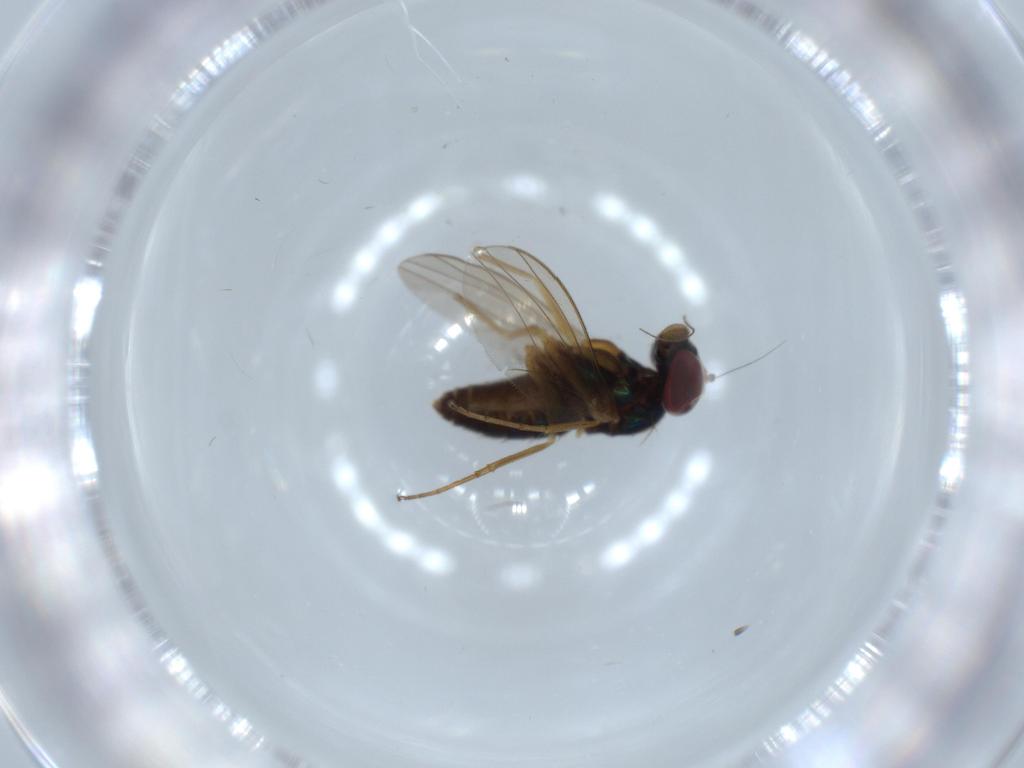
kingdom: Animalia
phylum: Arthropoda
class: Insecta
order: Diptera
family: Dolichopodidae
